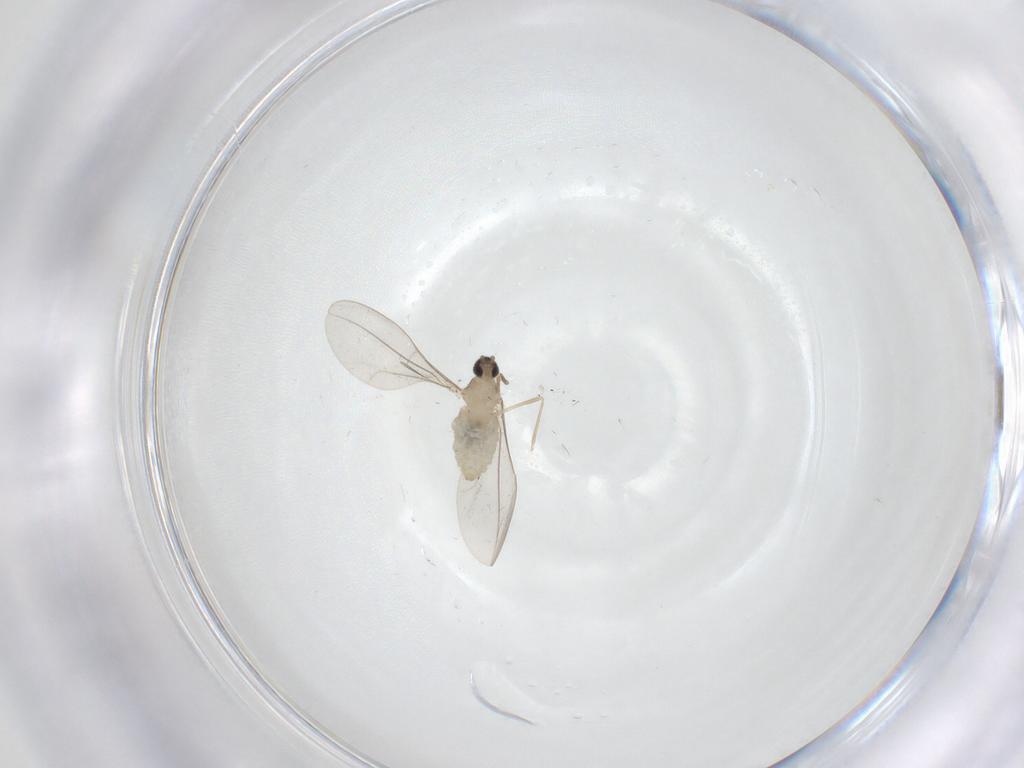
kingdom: Animalia
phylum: Arthropoda
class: Insecta
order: Diptera
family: Cecidomyiidae
